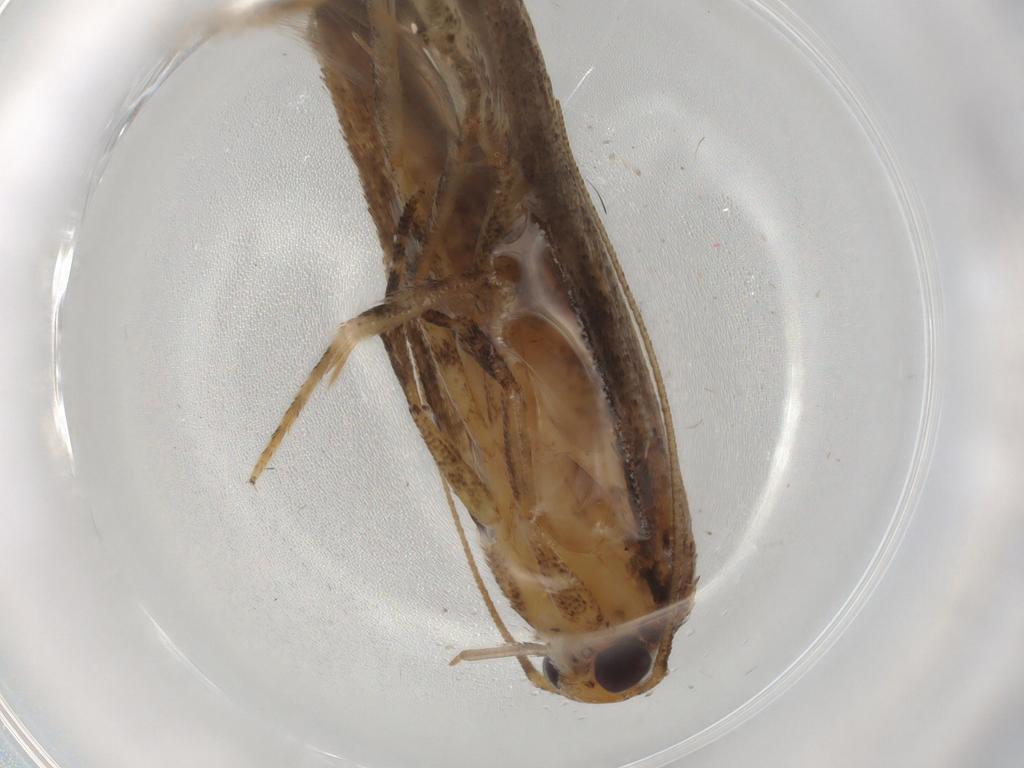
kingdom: Animalia
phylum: Arthropoda
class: Insecta
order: Lepidoptera
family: Gelechiidae
